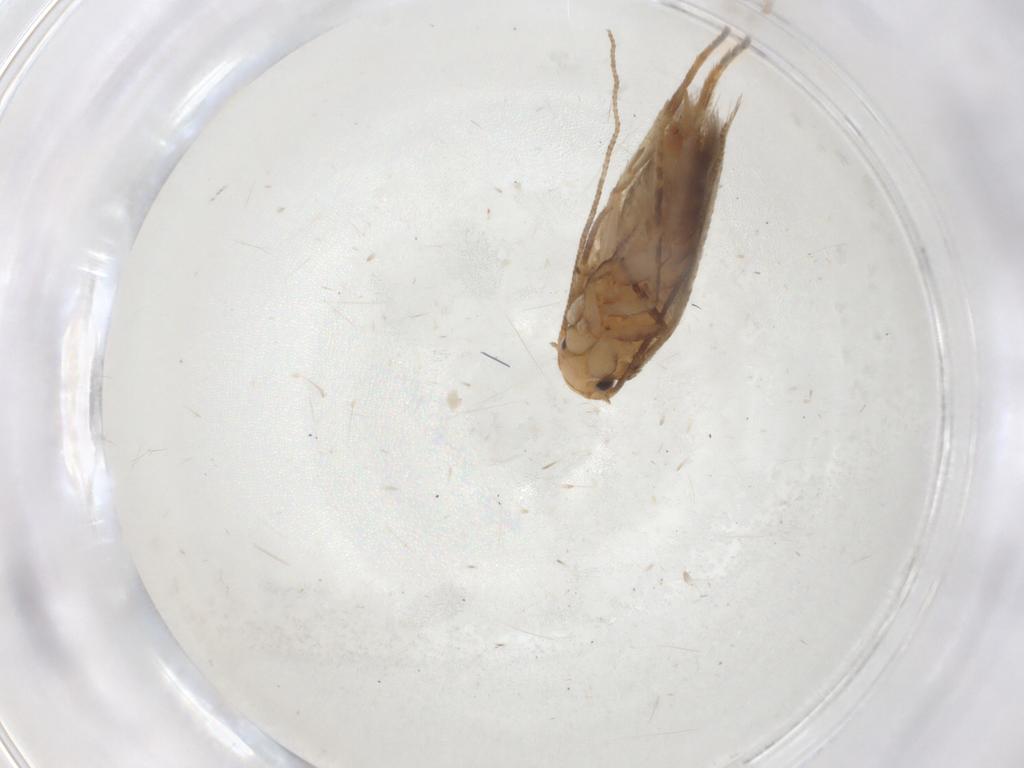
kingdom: Animalia
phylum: Arthropoda
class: Insecta
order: Lepidoptera
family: Tineidae
